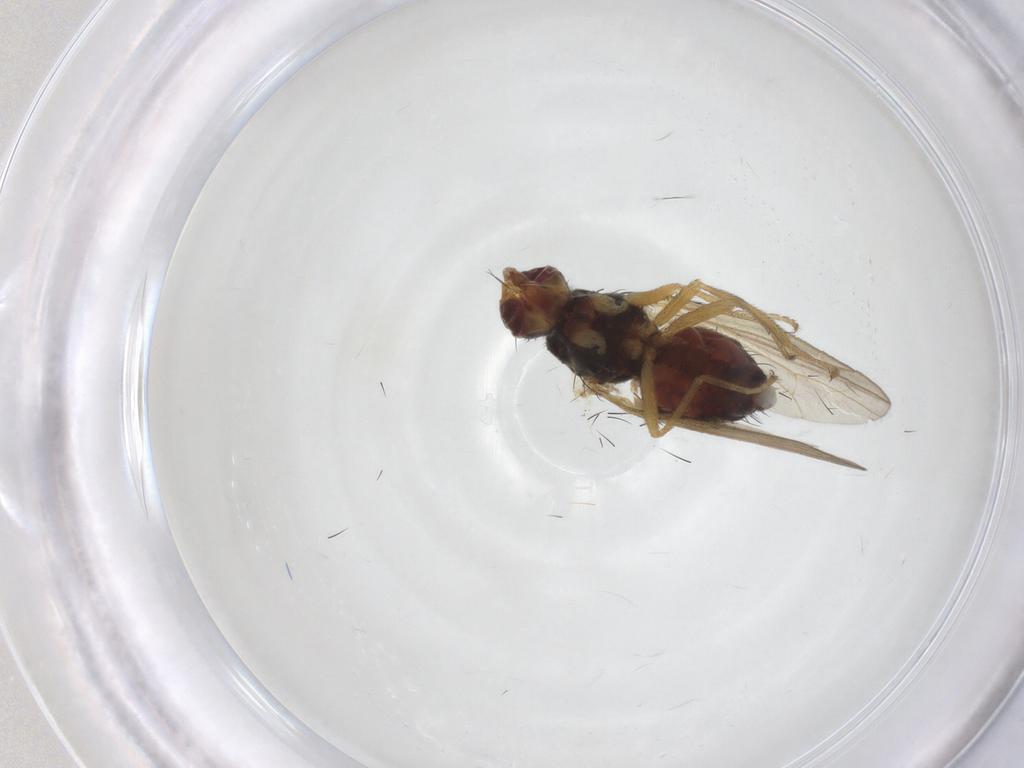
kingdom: Animalia
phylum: Arthropoda
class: Insecta
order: Diptera
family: Heleomyzidae
